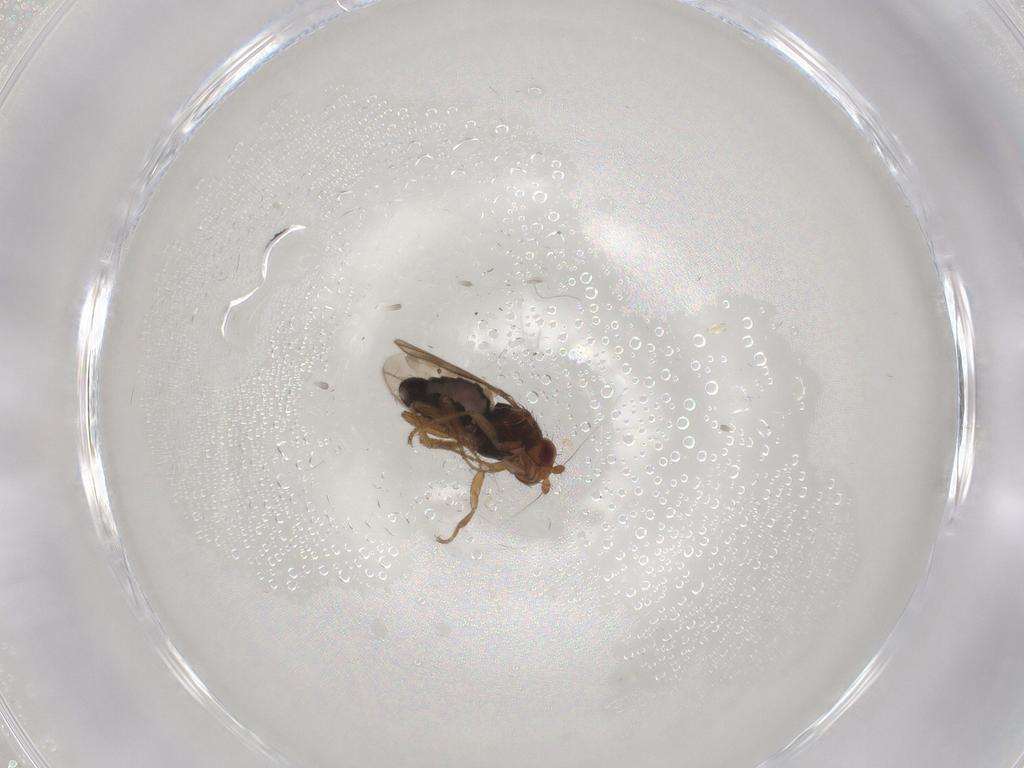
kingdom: Animalia
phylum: Arthropoda
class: Insecta
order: Diptera
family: Sphaeroceridae
